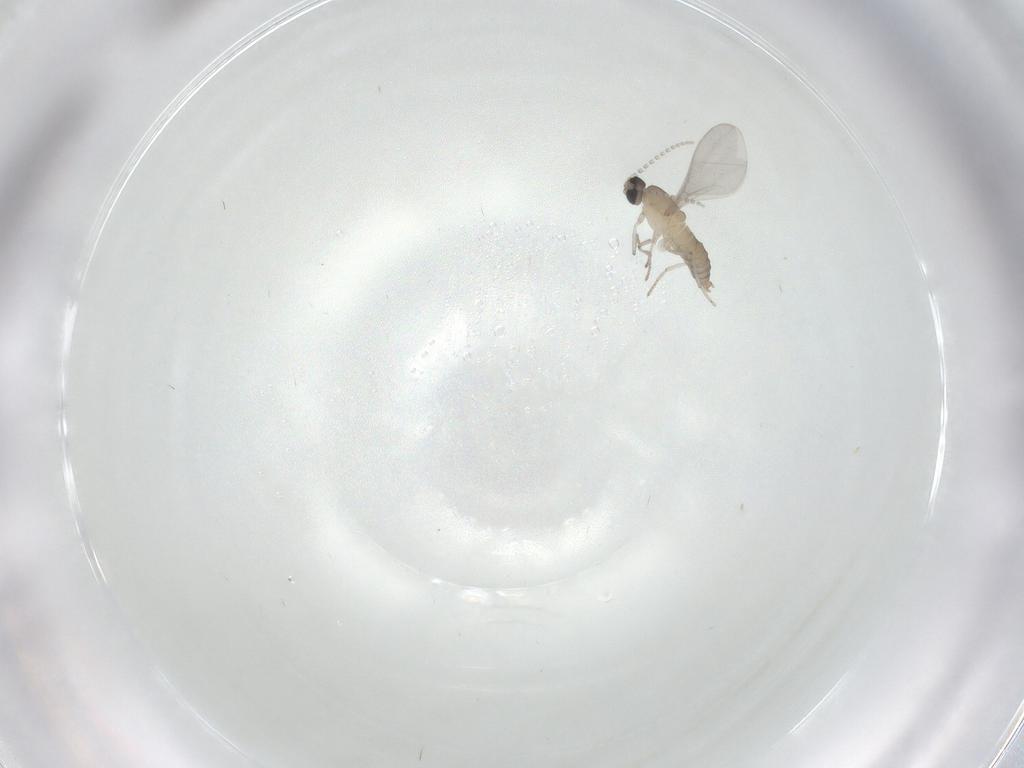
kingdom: Animalia
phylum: Arthropoda
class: Insecta
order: Diptera
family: Cecidomyiidae
